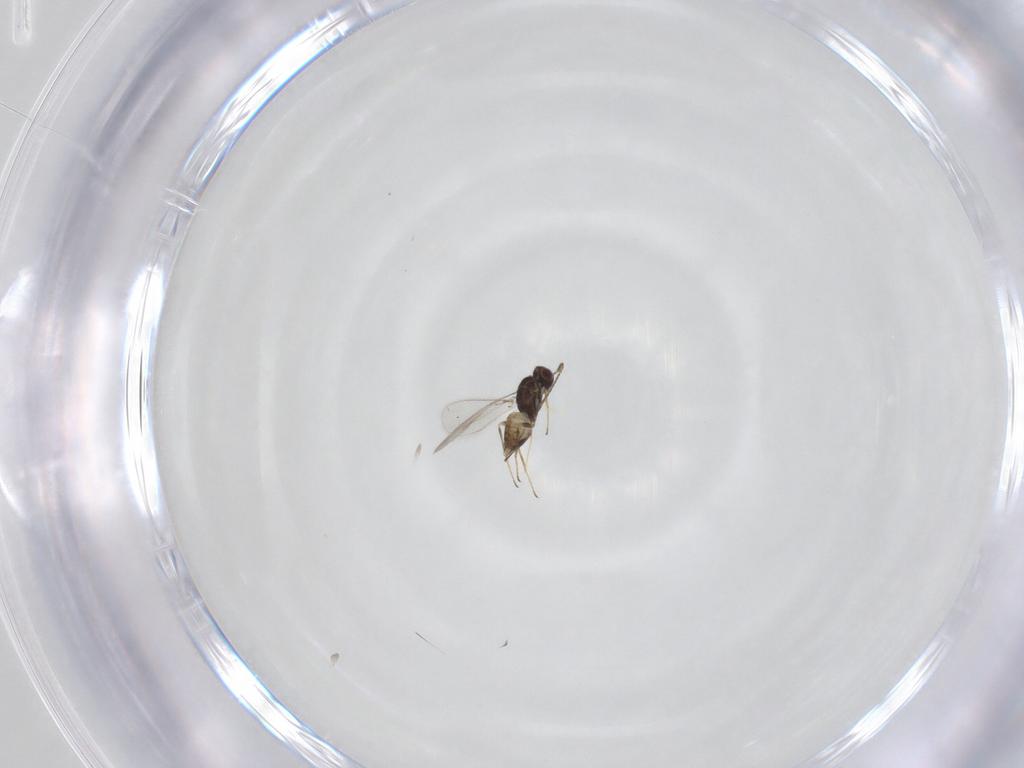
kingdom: Animalia
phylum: Arthropoda
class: Insecta
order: Hymenoptera
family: Mymaridae
